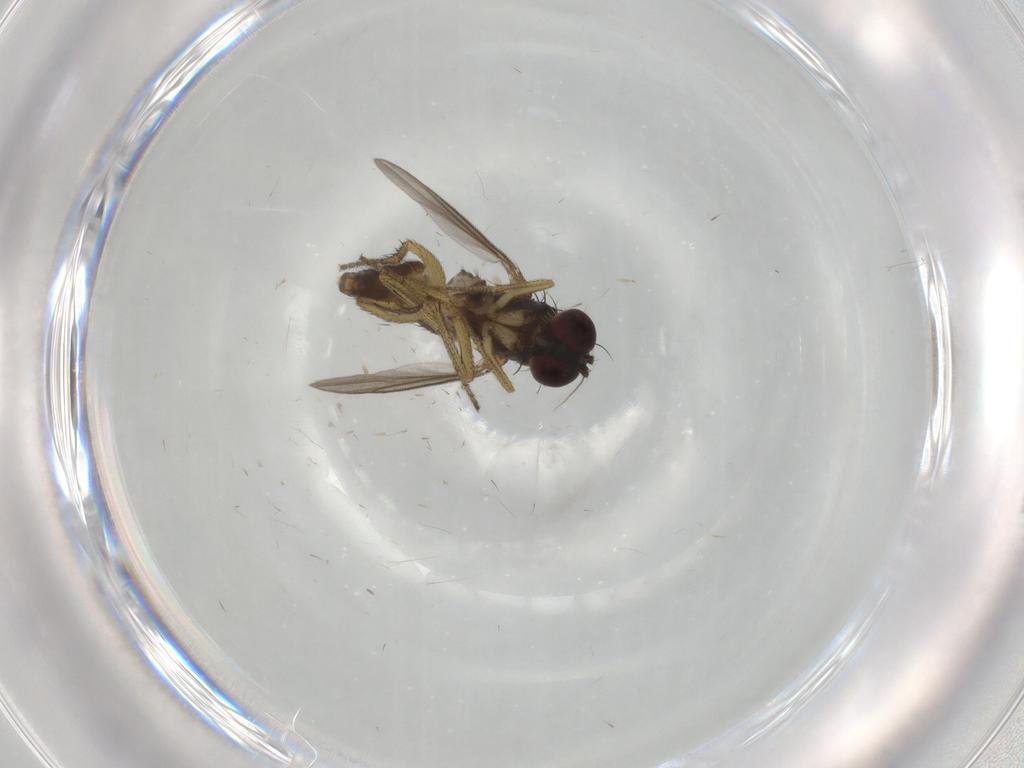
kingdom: Animalia
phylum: Arthropoda
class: Insecta
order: Diptera
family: Dolichopodidae
